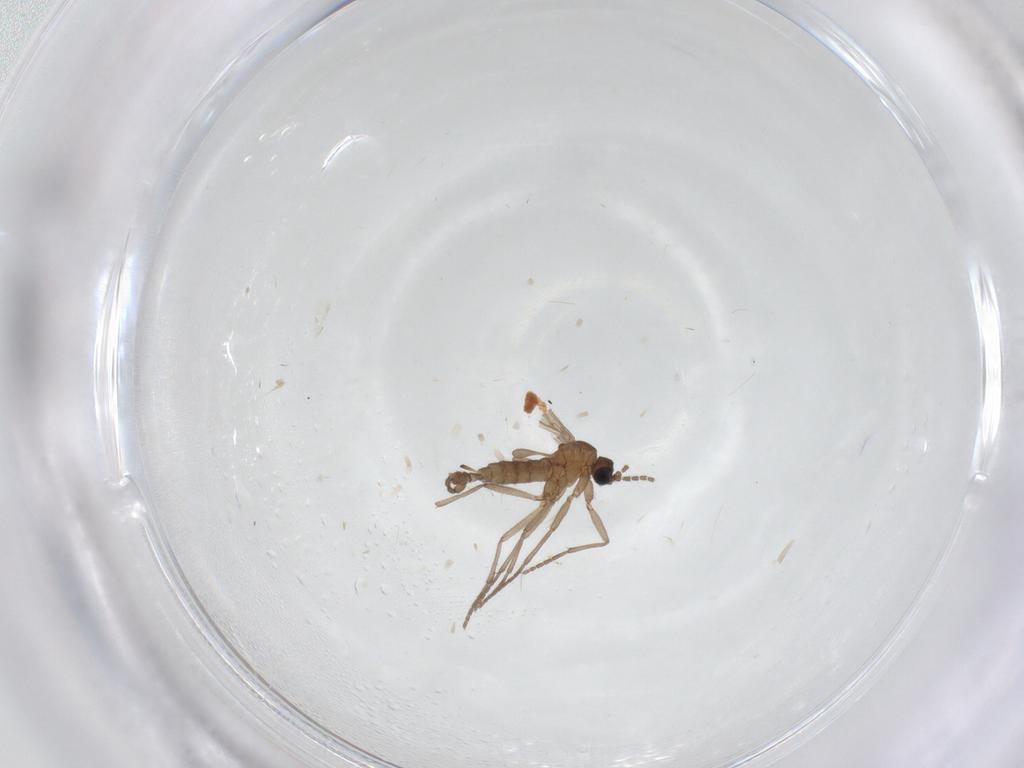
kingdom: Animalia
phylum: Arthropoda
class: Insecta
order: Diptera
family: Sciaridae
